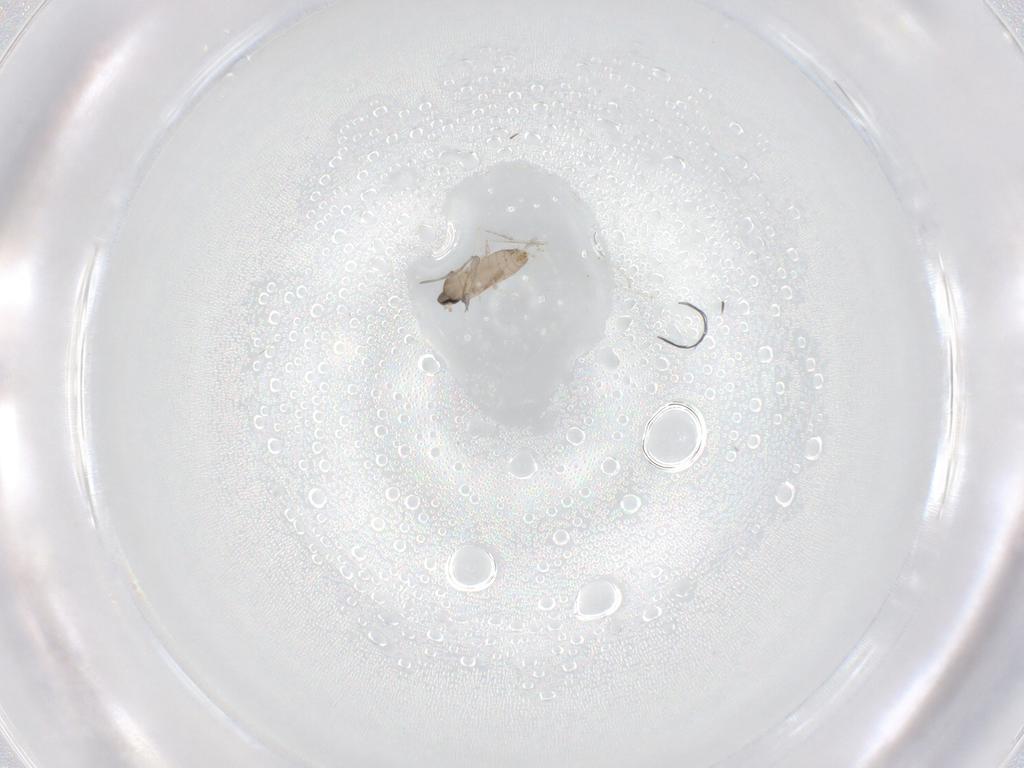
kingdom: Animalia
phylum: Arthropoda
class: Insecta
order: Diptera
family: Cecidomyiidae
